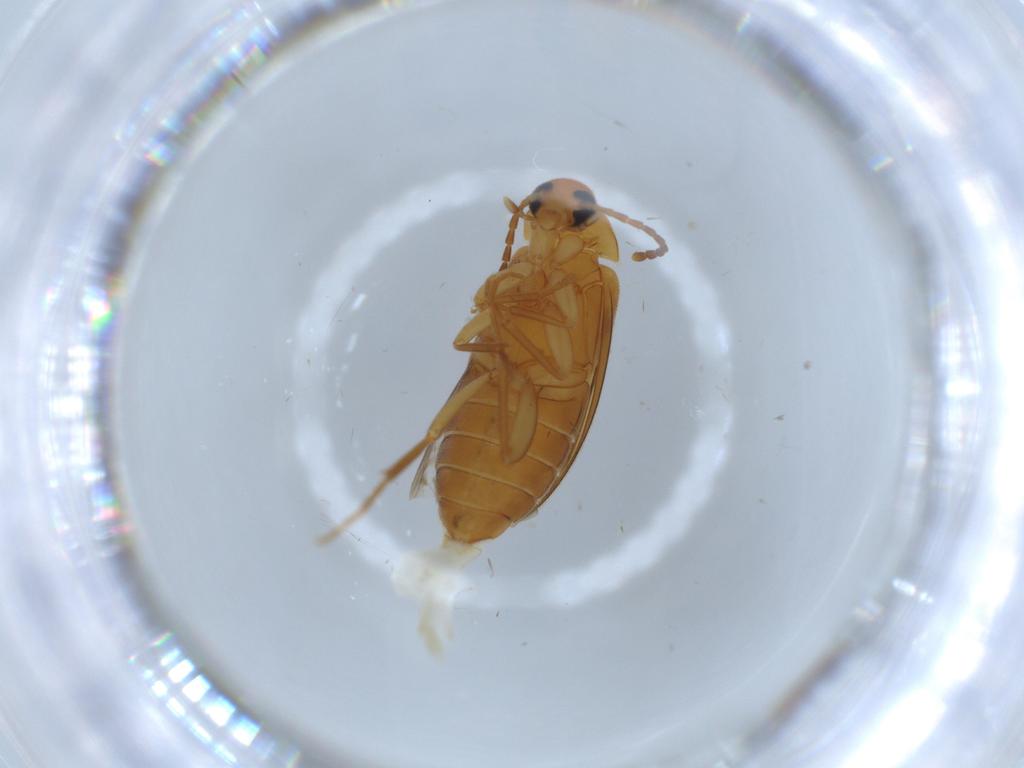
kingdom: Animalia
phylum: Arthropoda
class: Insecta
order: Coleoptera
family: Scraptiidae
